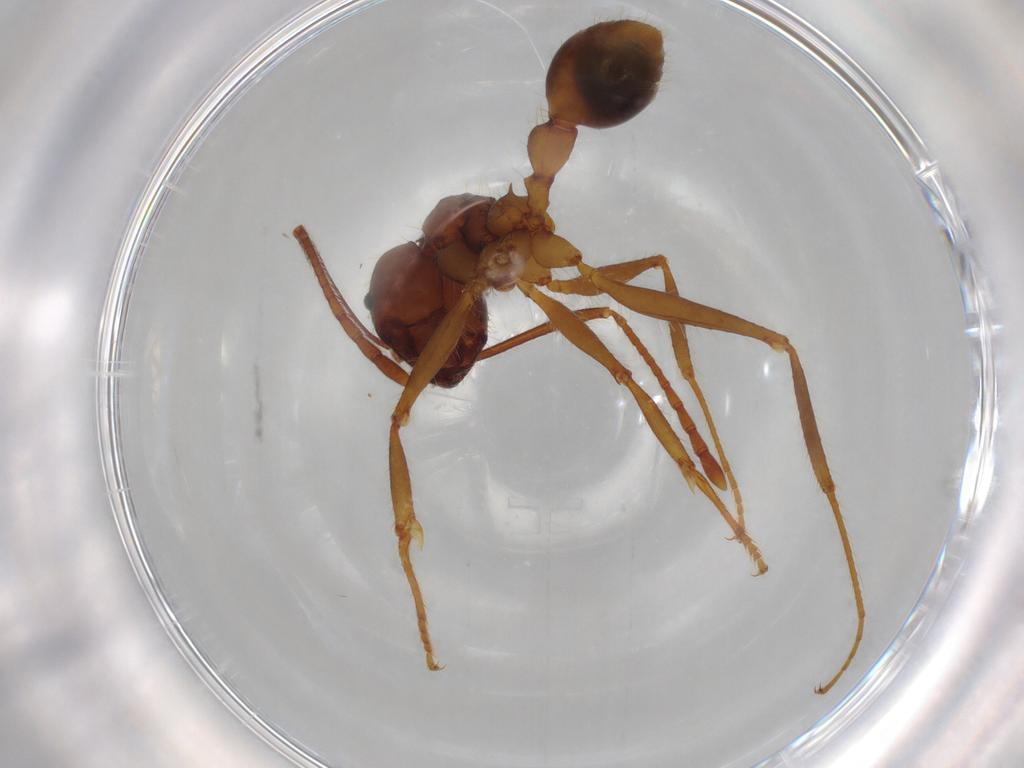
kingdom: Animalia
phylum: Arthropoda
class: Insecta
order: Hymenoptera
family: Formicidae
